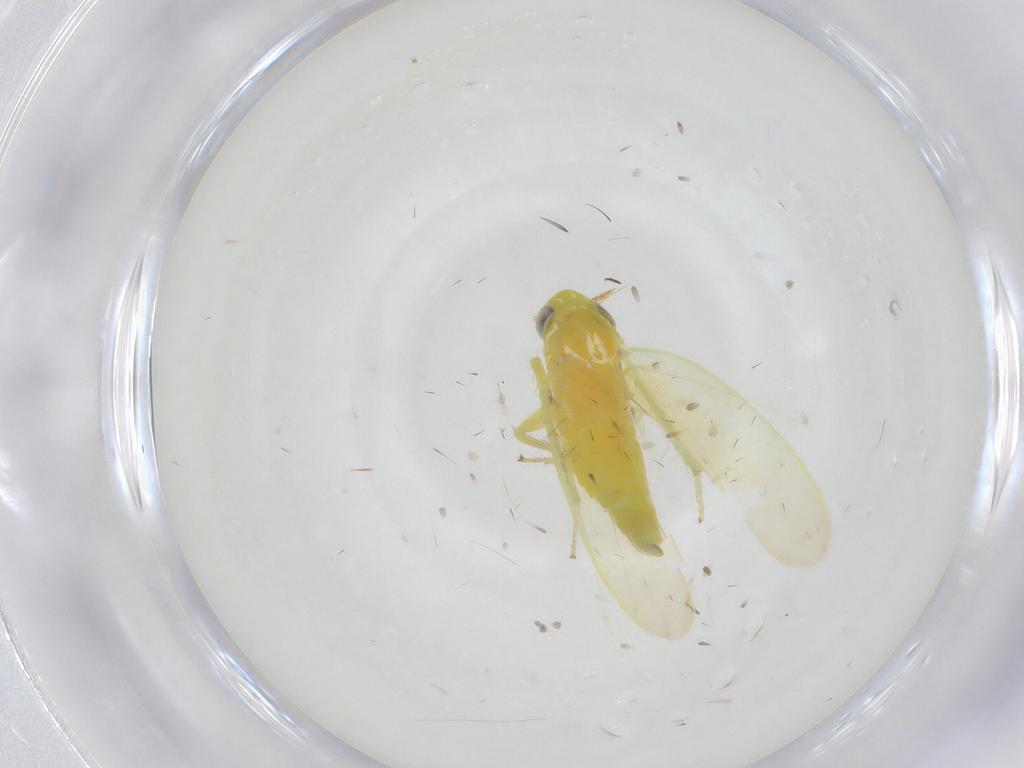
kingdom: Animalia
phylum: Arthropoda
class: Insecta
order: Hemiptera
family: Cicadellidae
